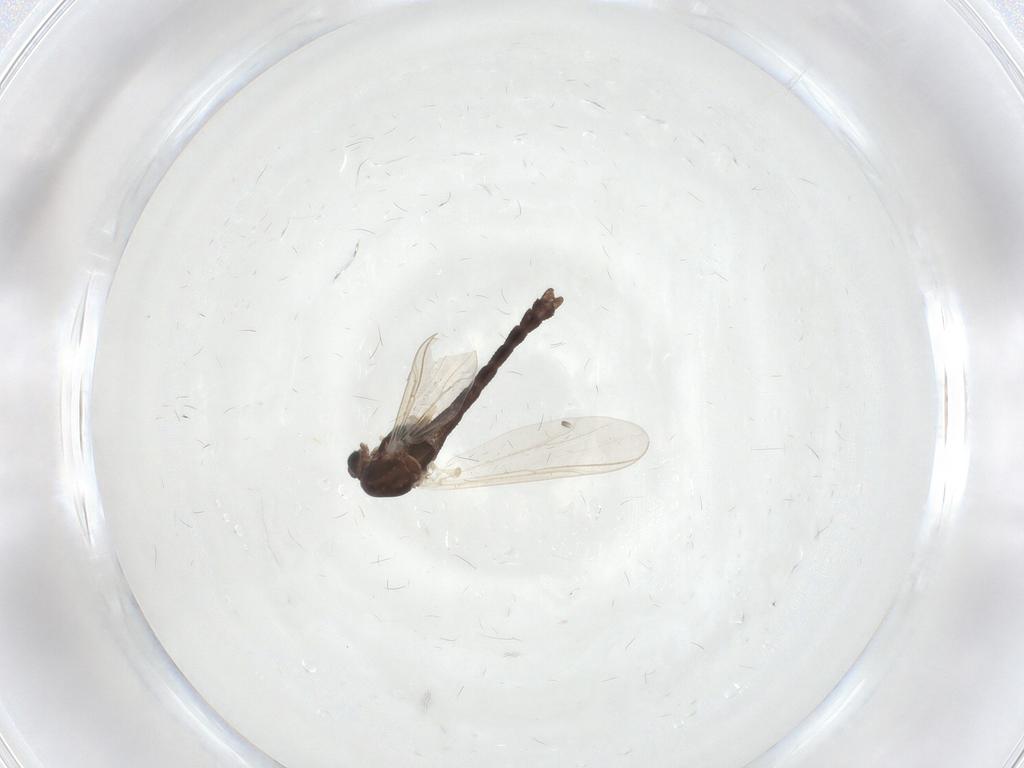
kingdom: Animalia
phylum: Arthropoda
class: Insecta
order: Diptera
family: Chironomidae
